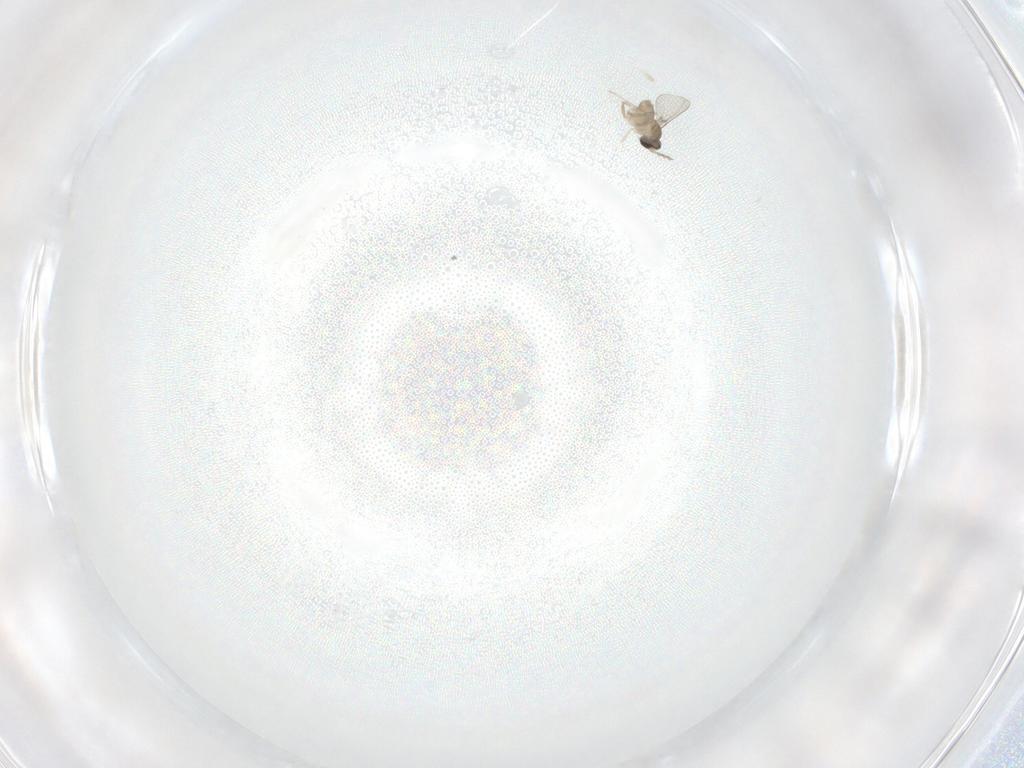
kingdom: Animalia
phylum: Arthropoda
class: Insecta
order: Diptera
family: Cecidomyiidae
